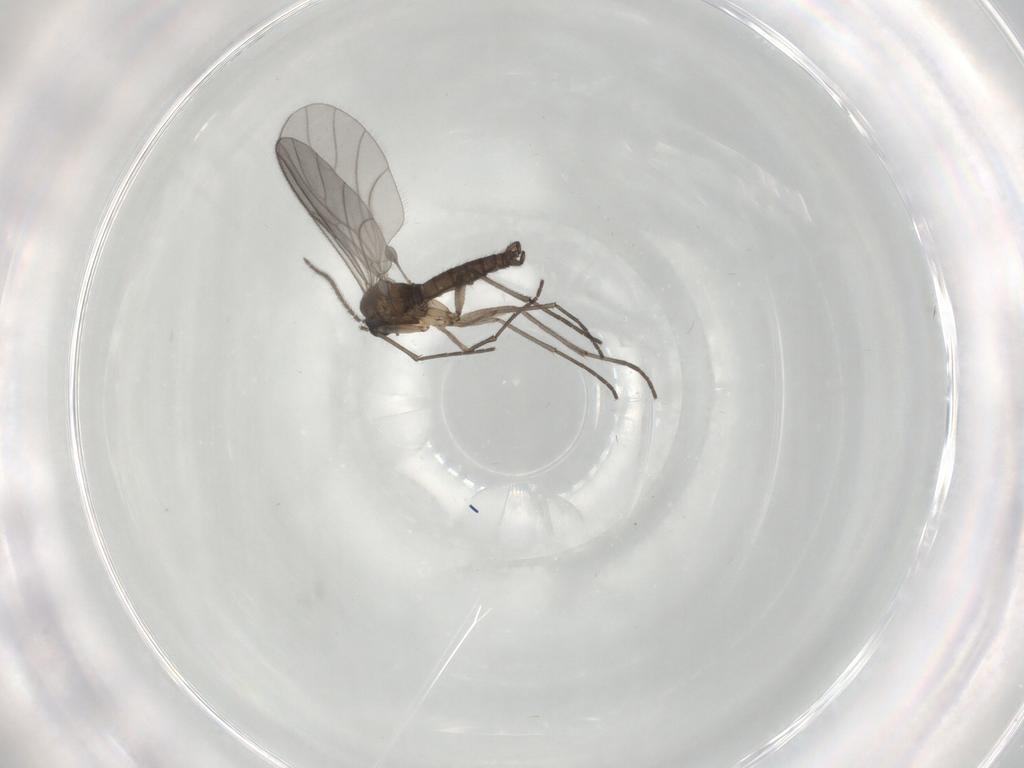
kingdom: Animalia
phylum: Arthropoda
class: Insecta
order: Diptera
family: Sciaridae
